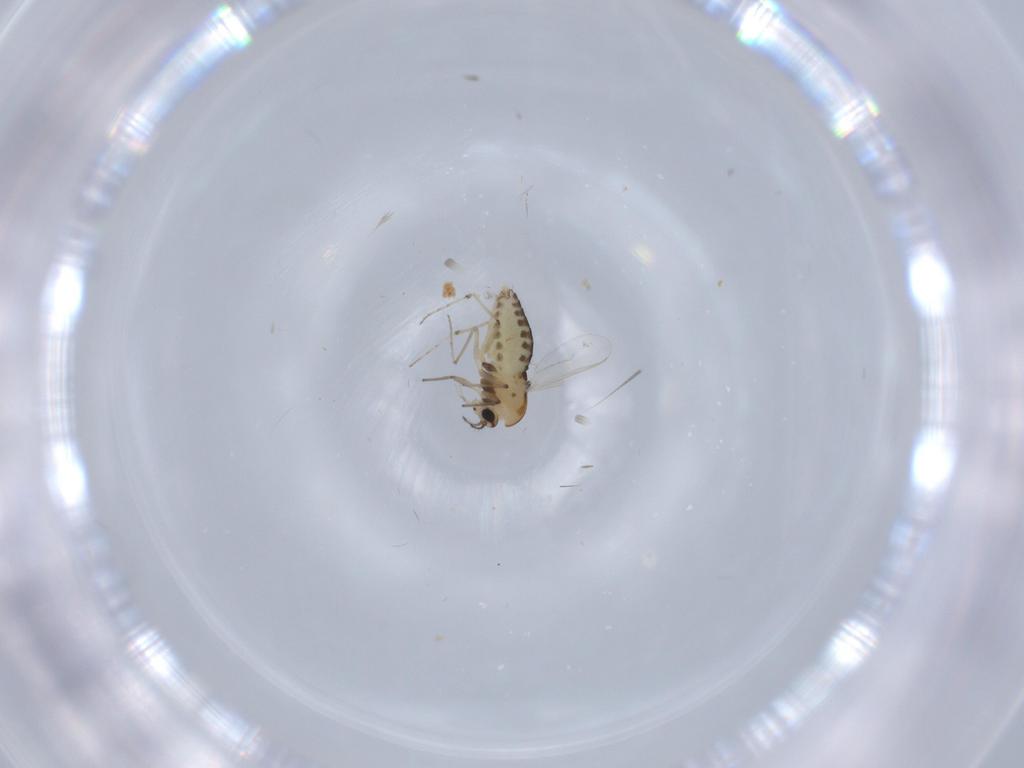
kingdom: Animalia
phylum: Arthropoda
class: Insecta
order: Diptera
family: Chironomidae
